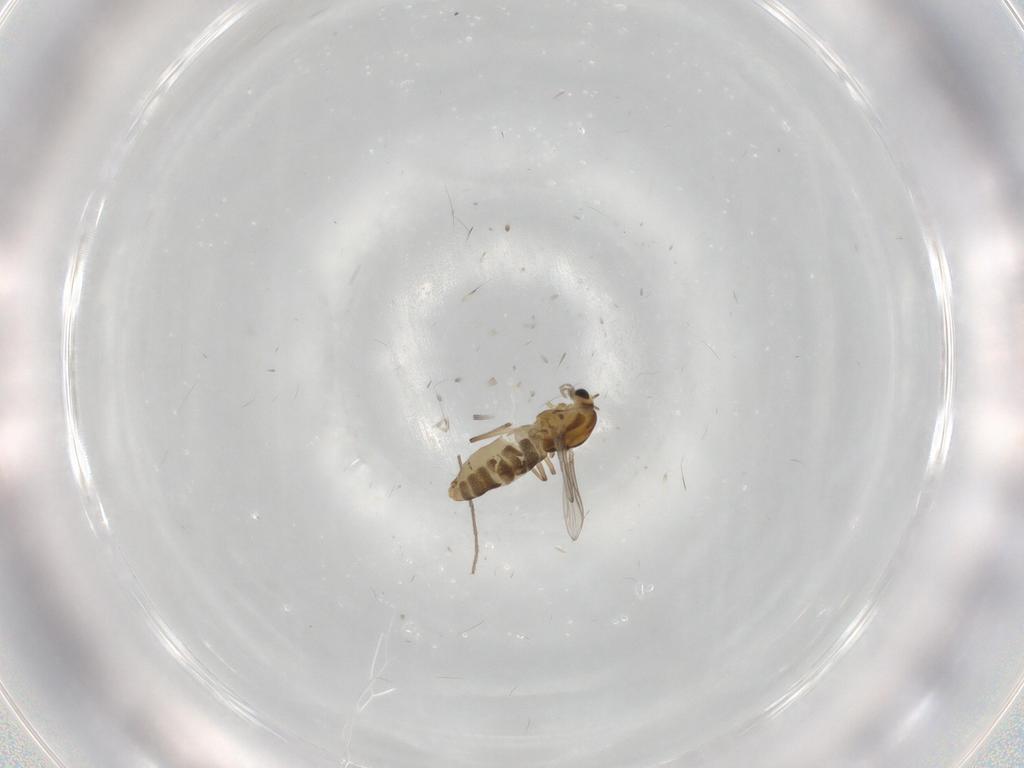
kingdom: Animalia
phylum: Arthropoda
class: Insecta
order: Diptera
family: Chironomidae
